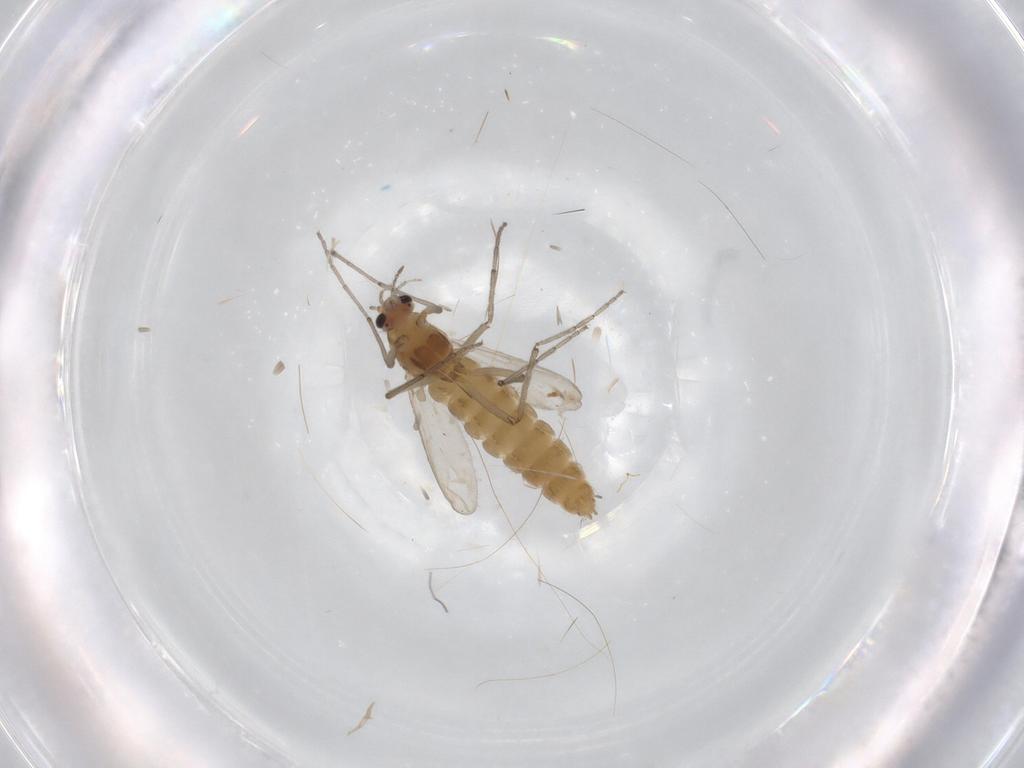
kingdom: Animalia
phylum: Arthropoda
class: Insecta
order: Diptera
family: Chironomidae
